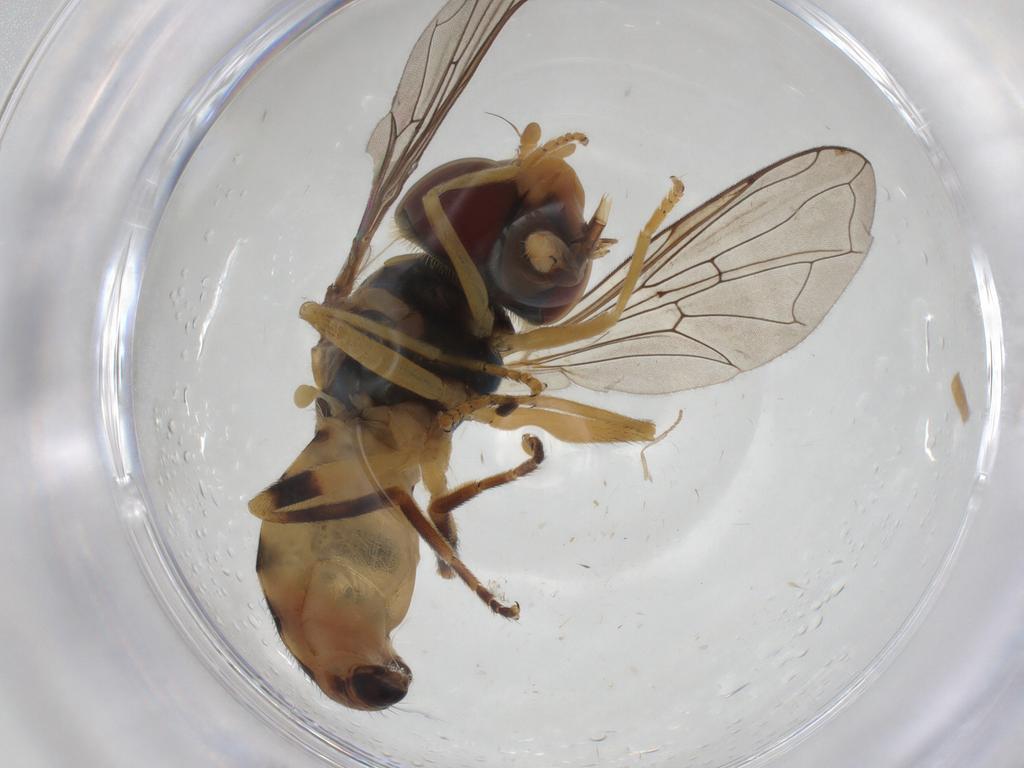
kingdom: Animalia
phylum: Arthropoda
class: Insecta
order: Diptera
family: Syrphidae
